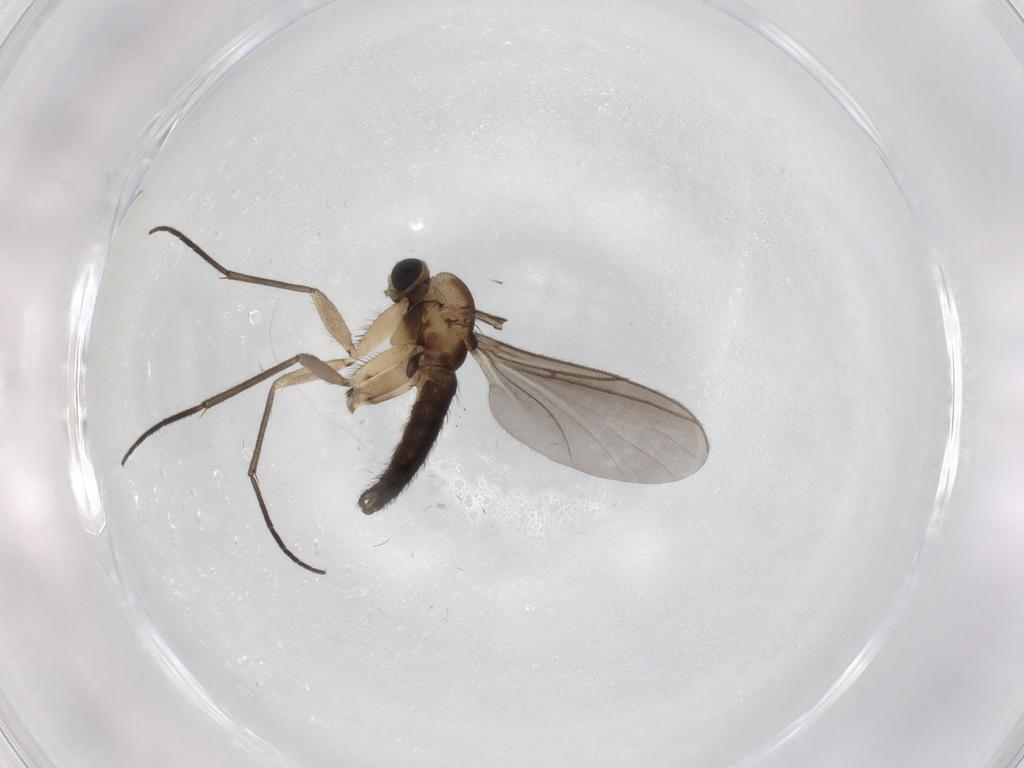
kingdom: Animalia
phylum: Arthropoda
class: Insecta
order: Diptera
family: Sciaridae
